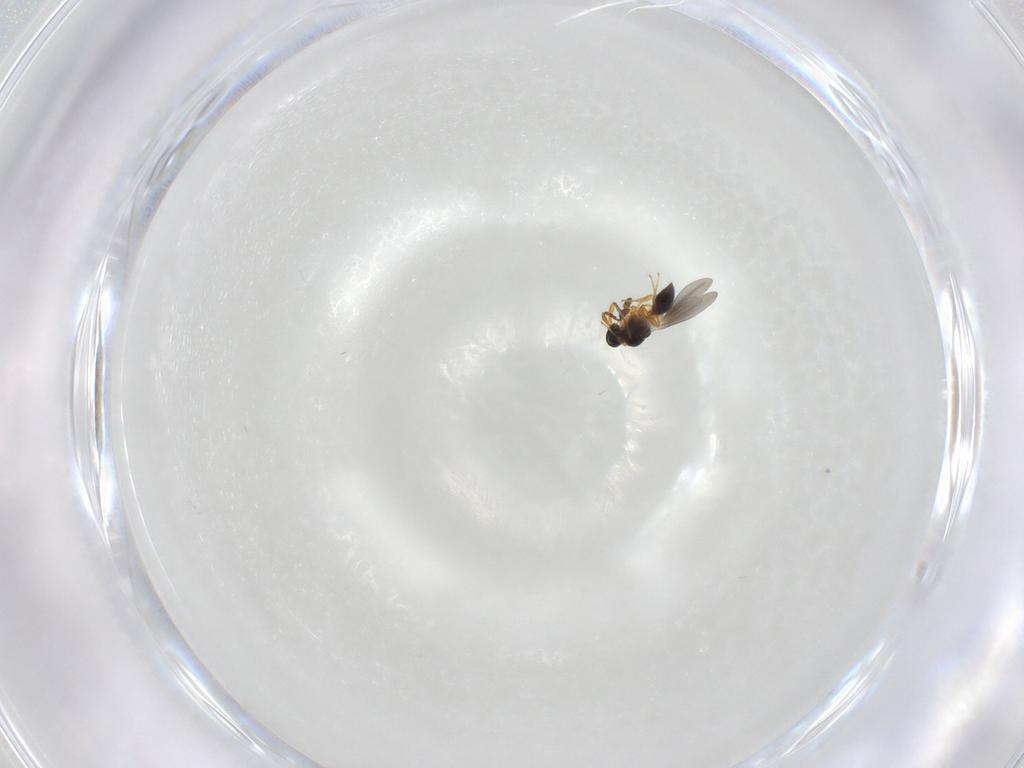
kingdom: Animalia
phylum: Arthropoda
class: Insecta
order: Hymenoptera
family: Platygastridae
